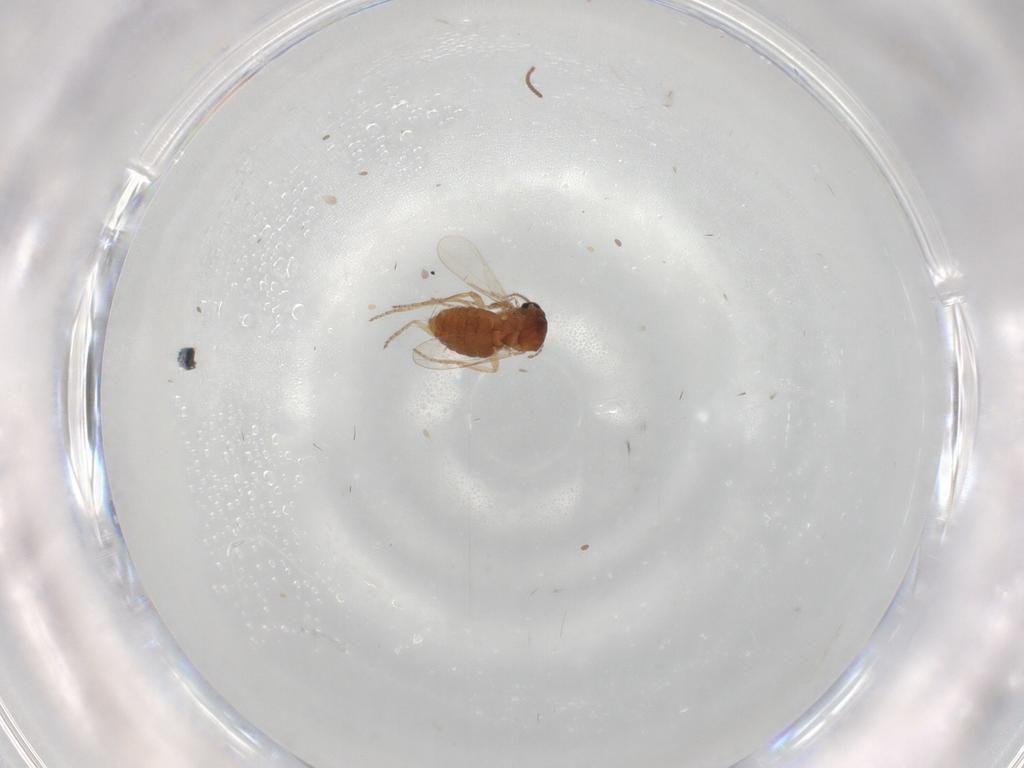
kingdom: Animalia
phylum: Arthropoda
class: Insecta
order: Diptera
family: Ceratopogonidae
